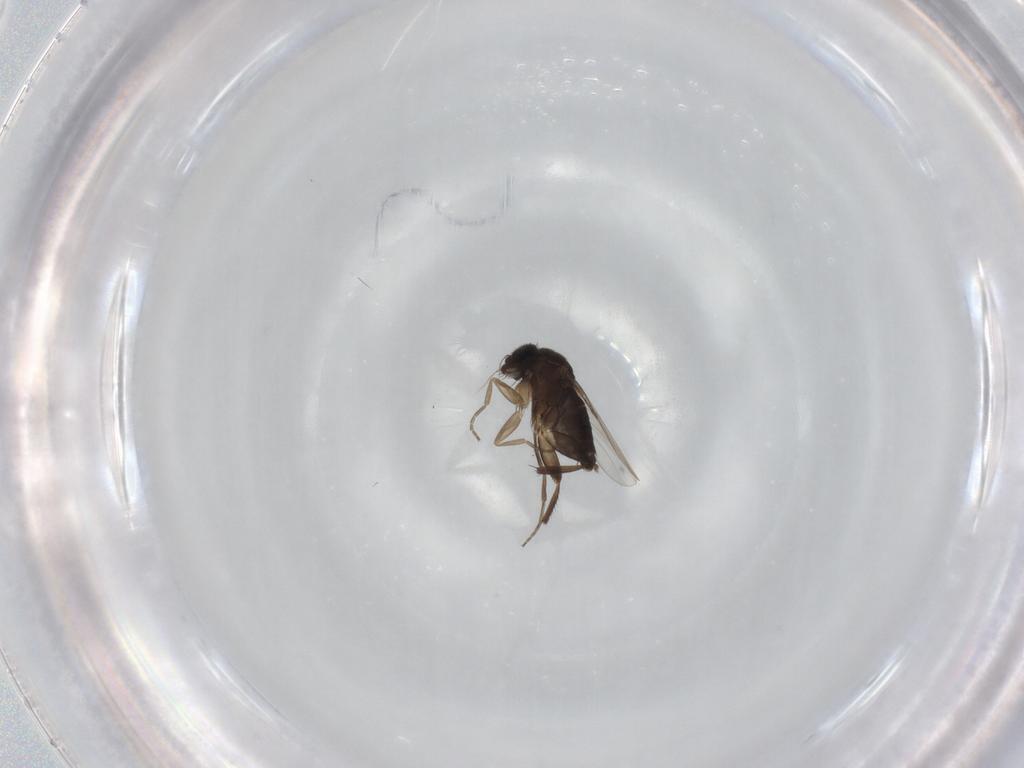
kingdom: Animalia
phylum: Arthropoda
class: Insecta
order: Diptera
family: Phoridae
